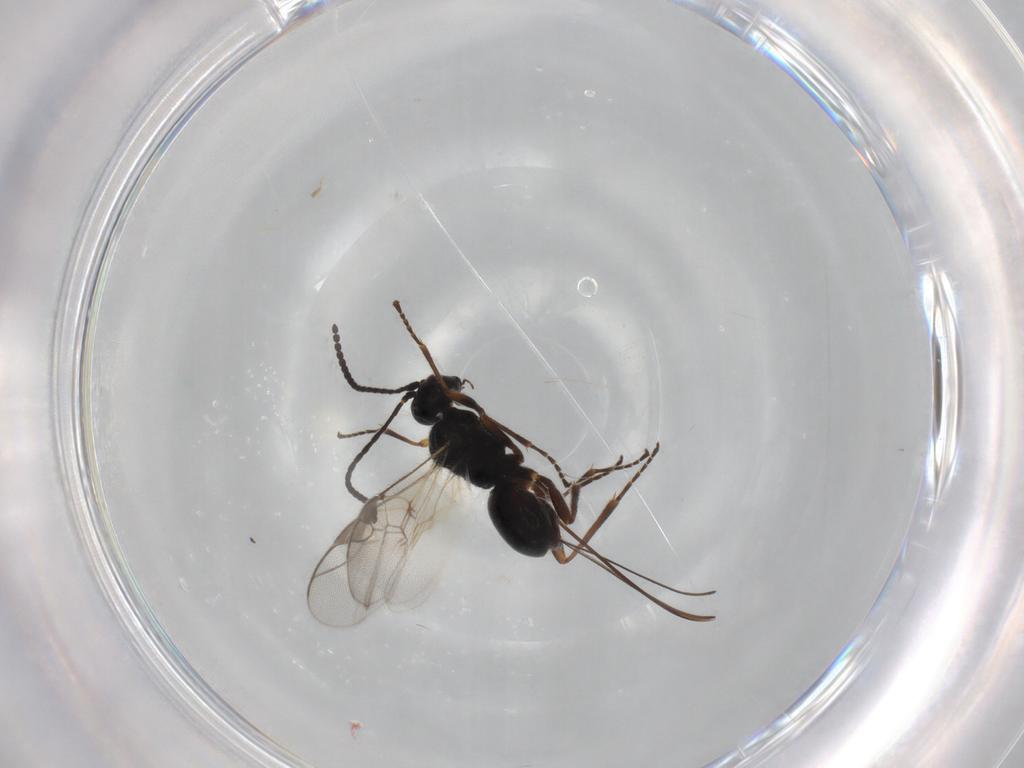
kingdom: Animalia
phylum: Arthropoda
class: Insecta
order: Hymenoptera
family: Braconidae
